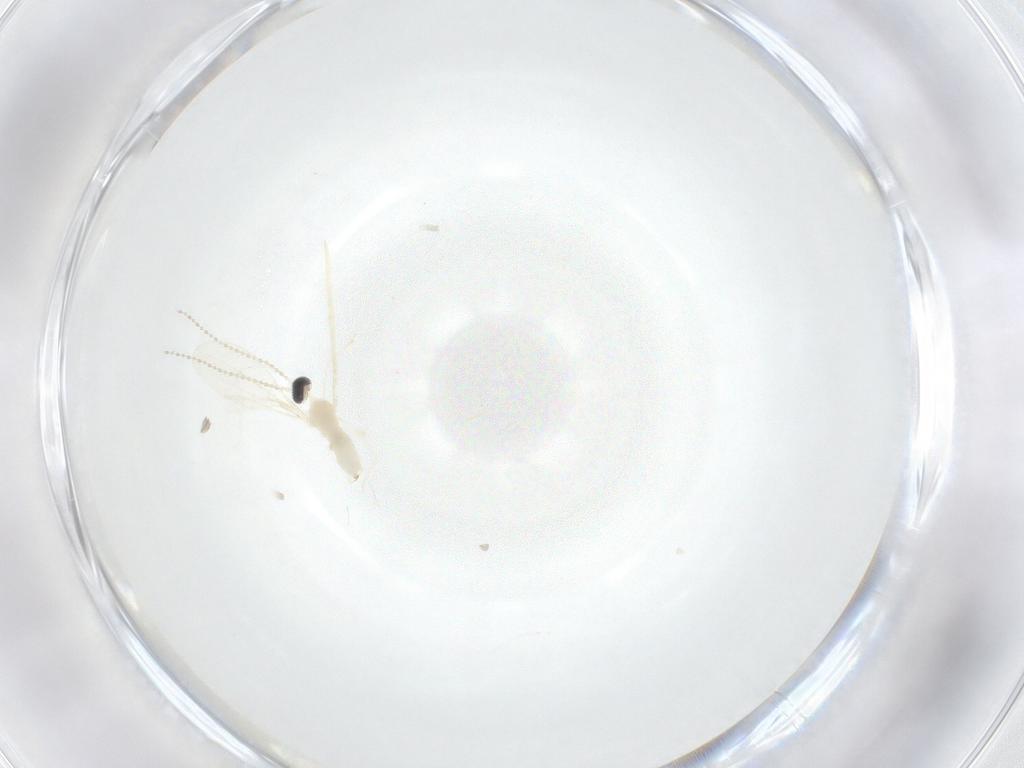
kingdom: Animalia
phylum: Arthropoda
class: Insecta
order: Diptera
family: Cecidomyiidae
